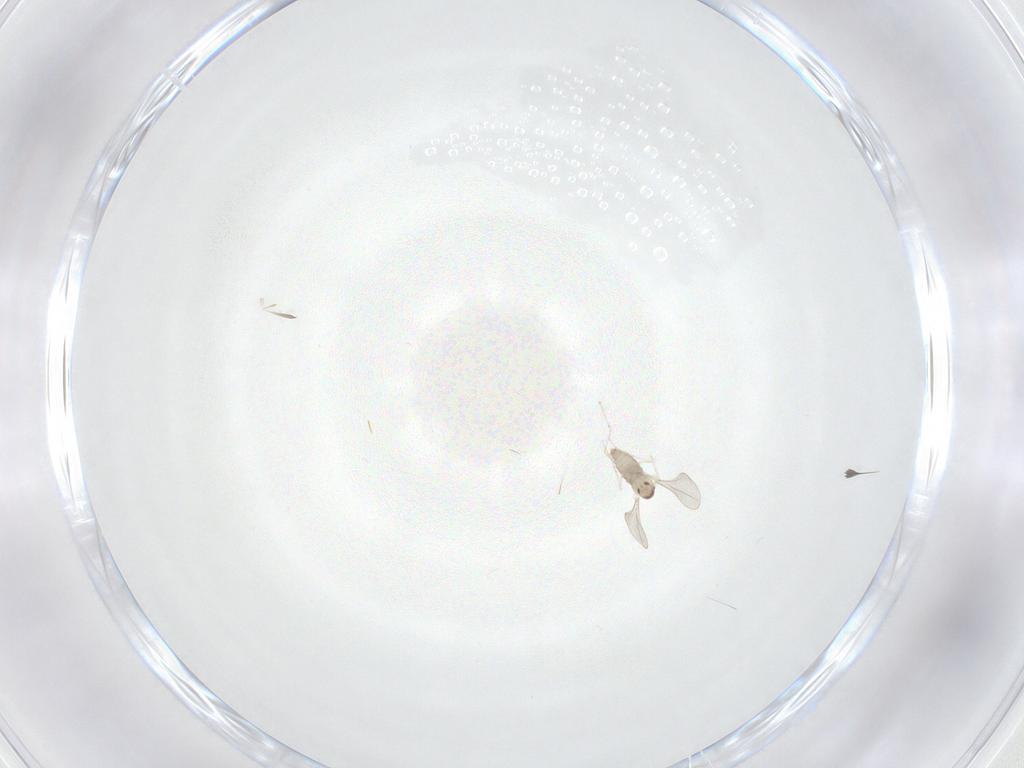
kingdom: Animalia
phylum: Arthropoda
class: Insecta
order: Diptera
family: Cecidomyiidae
